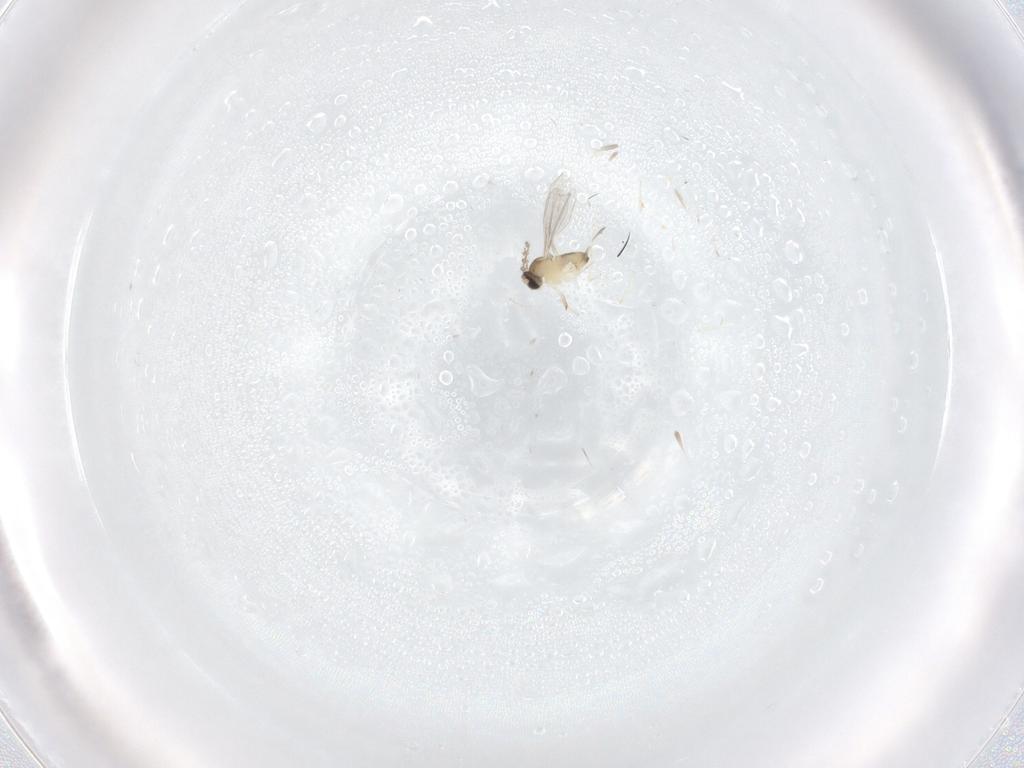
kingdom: Animalia
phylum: Arthropoda
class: Insecta
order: Diptera
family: Cecidomyiidae
